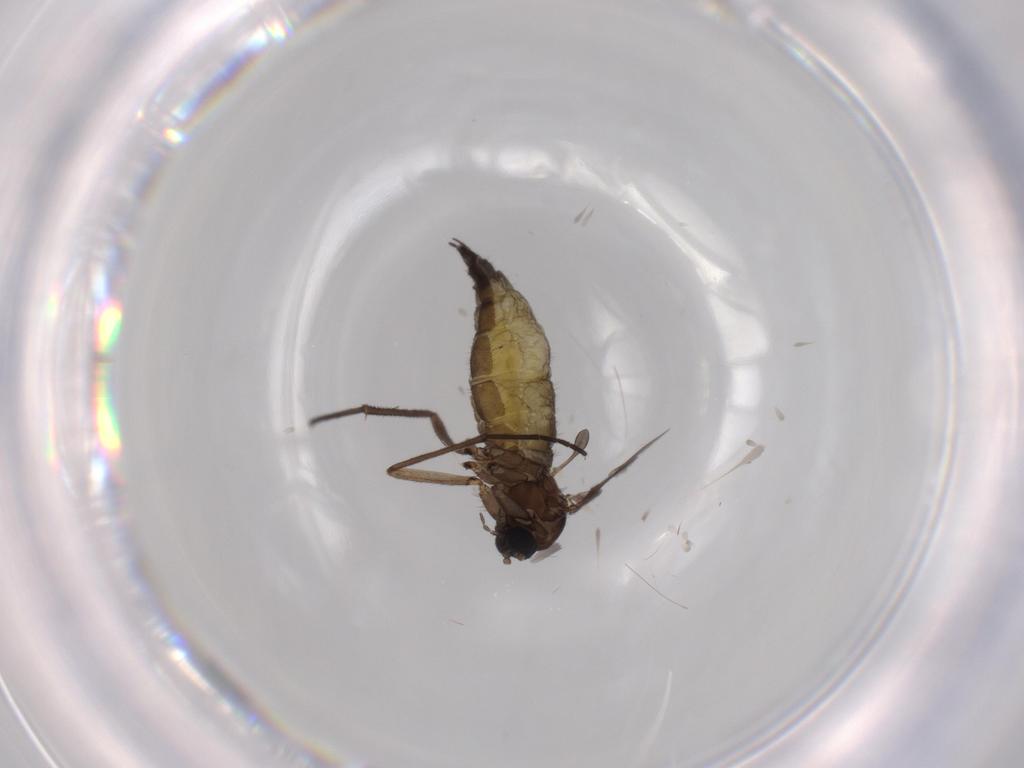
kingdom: Animalia
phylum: Arthropoda
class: Insecta
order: Diptera
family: Sciaridae
